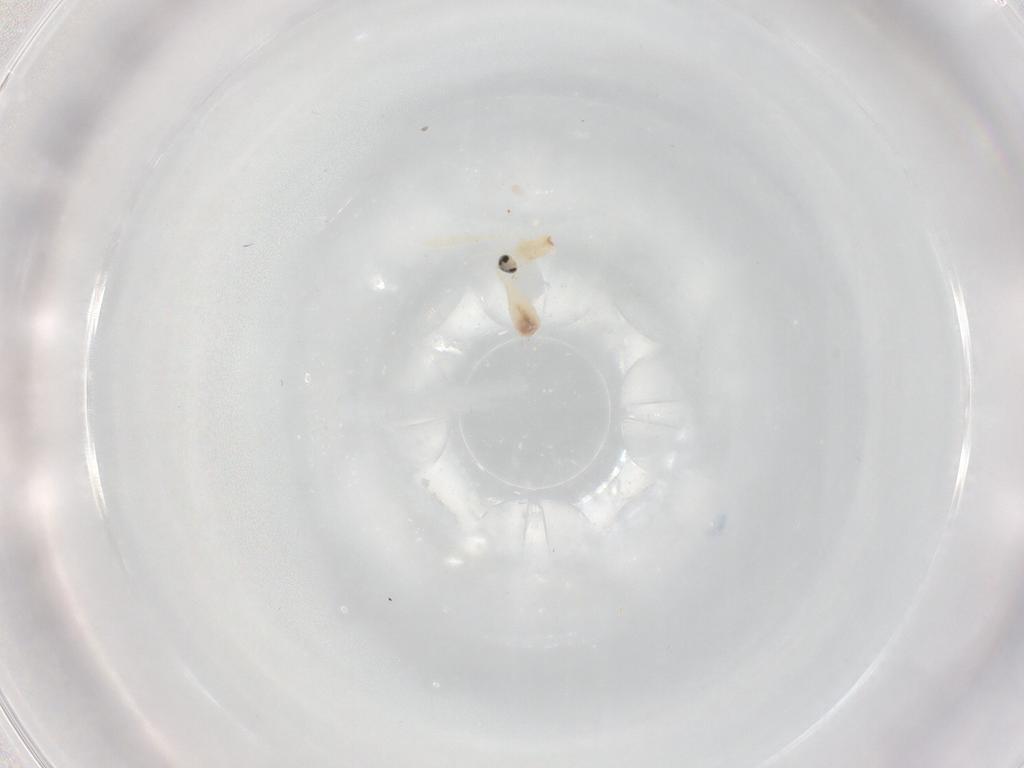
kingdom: Animalia
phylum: Arthropoda
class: Insecta
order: Diptera
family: Cecidomyiidae
